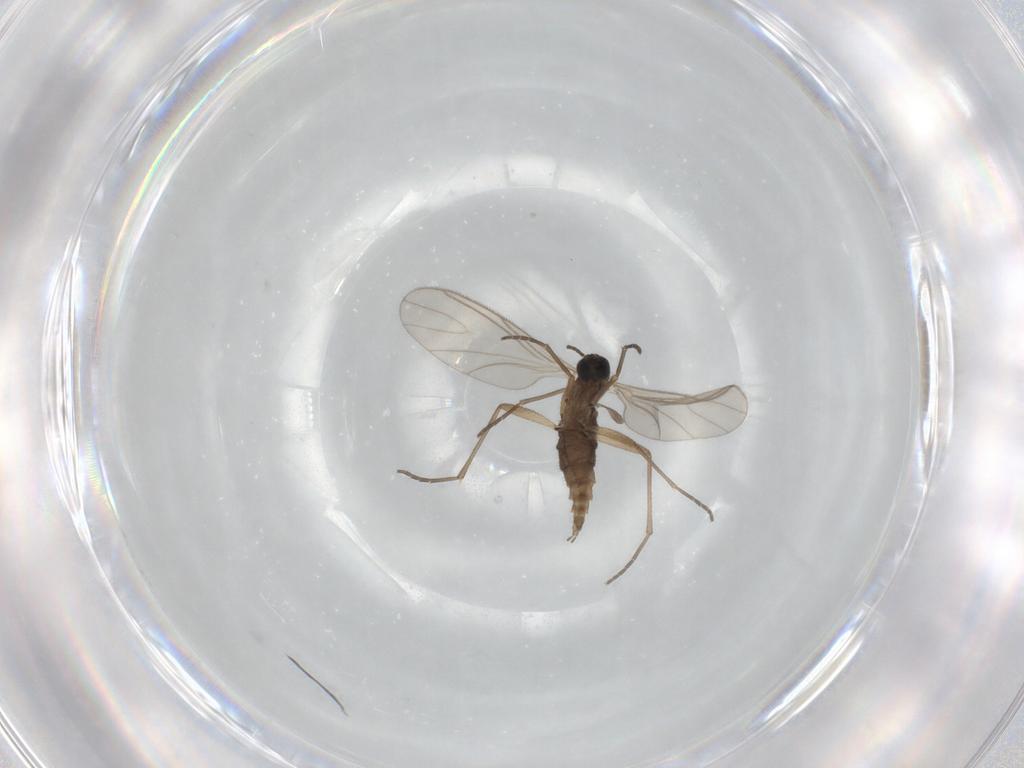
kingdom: Animalia
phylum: Arthropoda
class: Insecta
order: Diptera
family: Sciaridae
